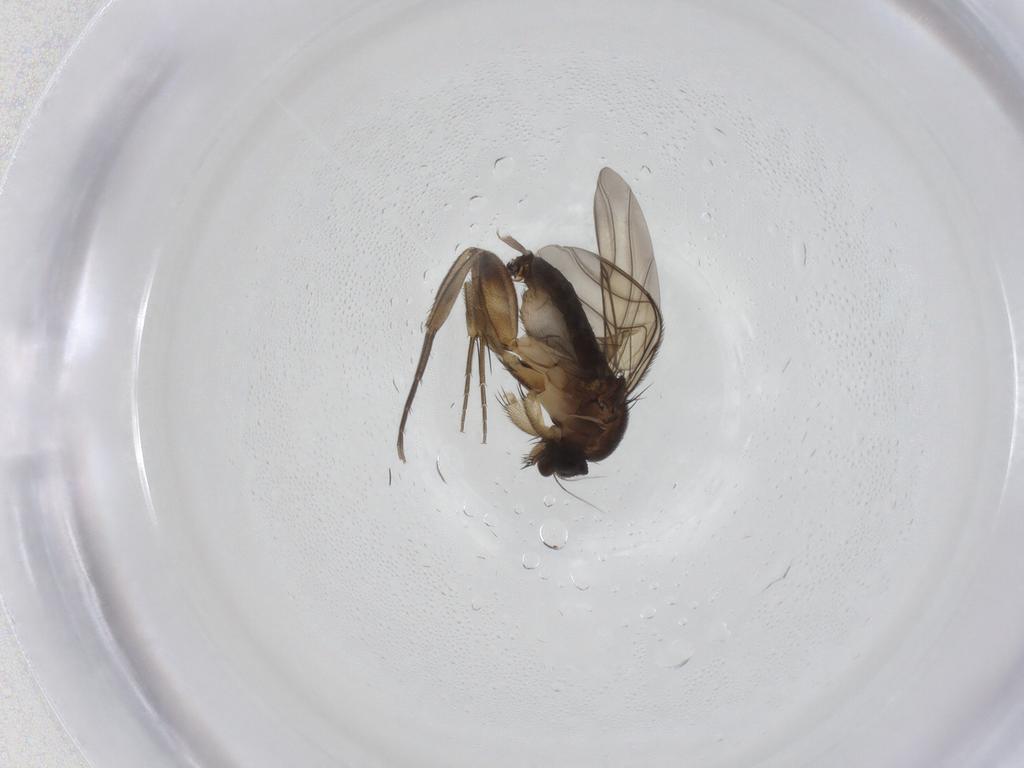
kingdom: Animalia
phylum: Arthropoda
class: Insecta
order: Diptera
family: Phoridae
